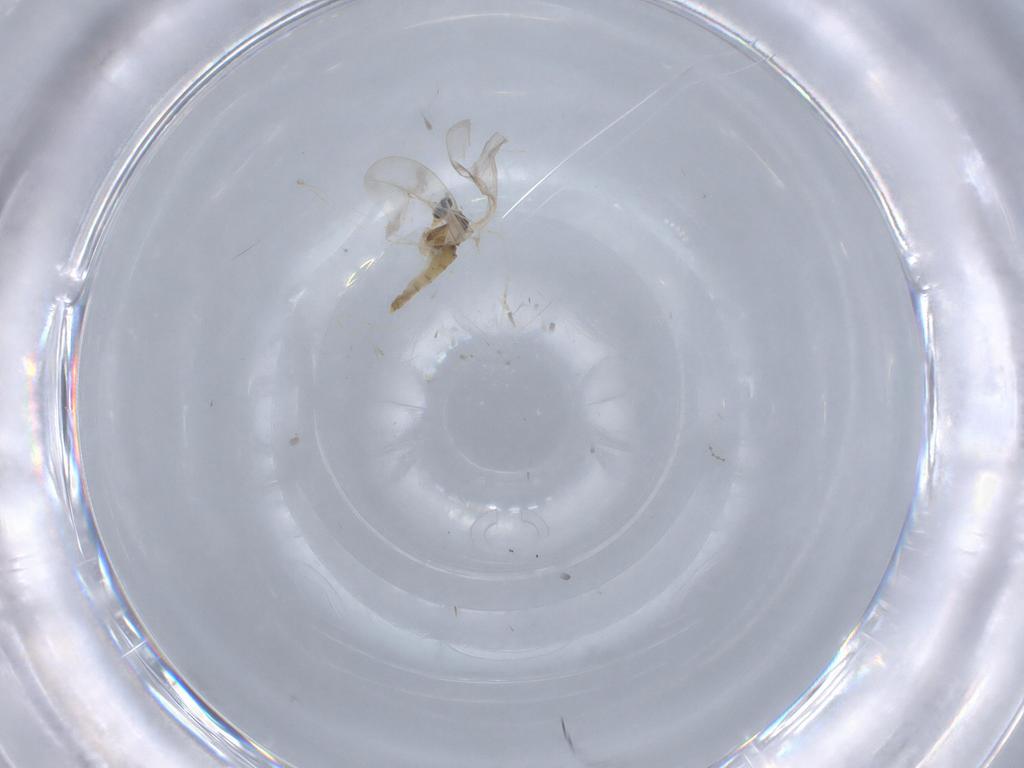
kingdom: Animalia
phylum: Arthropoda
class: Insecta
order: Diptera
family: Cecidomyiidae
